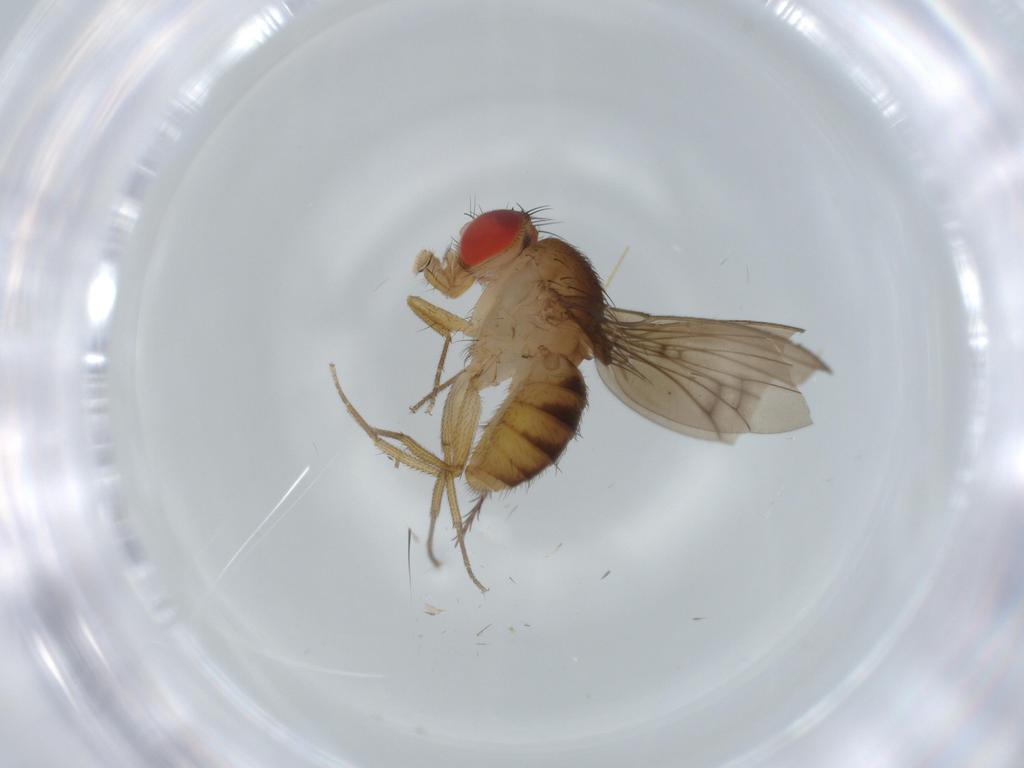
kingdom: Animalia
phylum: Arthropoda
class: Insecta
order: Diptera
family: Drosophilidae
